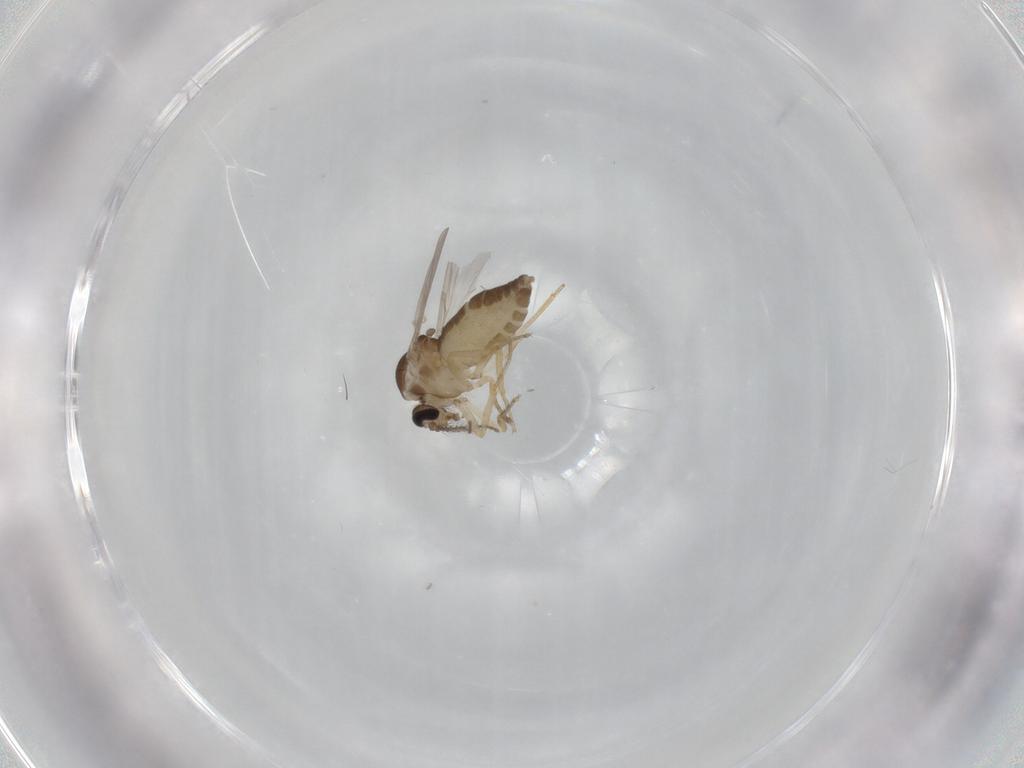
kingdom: Animalia
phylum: Arthropoda
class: Insecta
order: Diptera
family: Ceratopogonidae
